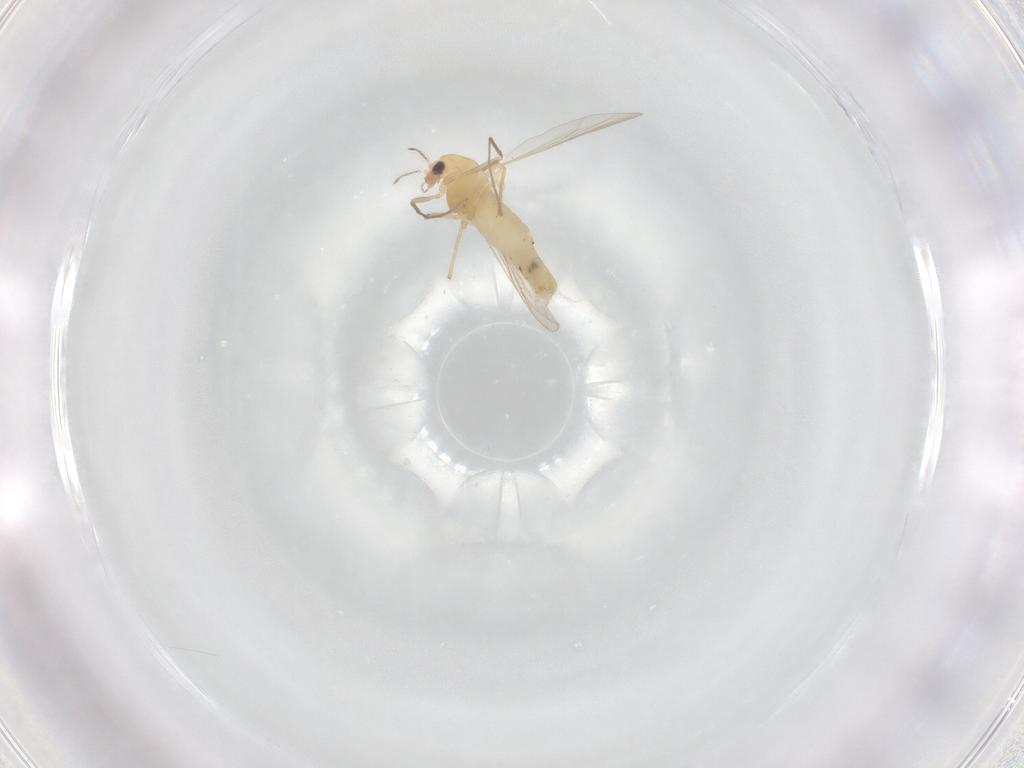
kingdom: Animalia
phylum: Arthropoda
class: Insecta
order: Diptera
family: Chironomidae
